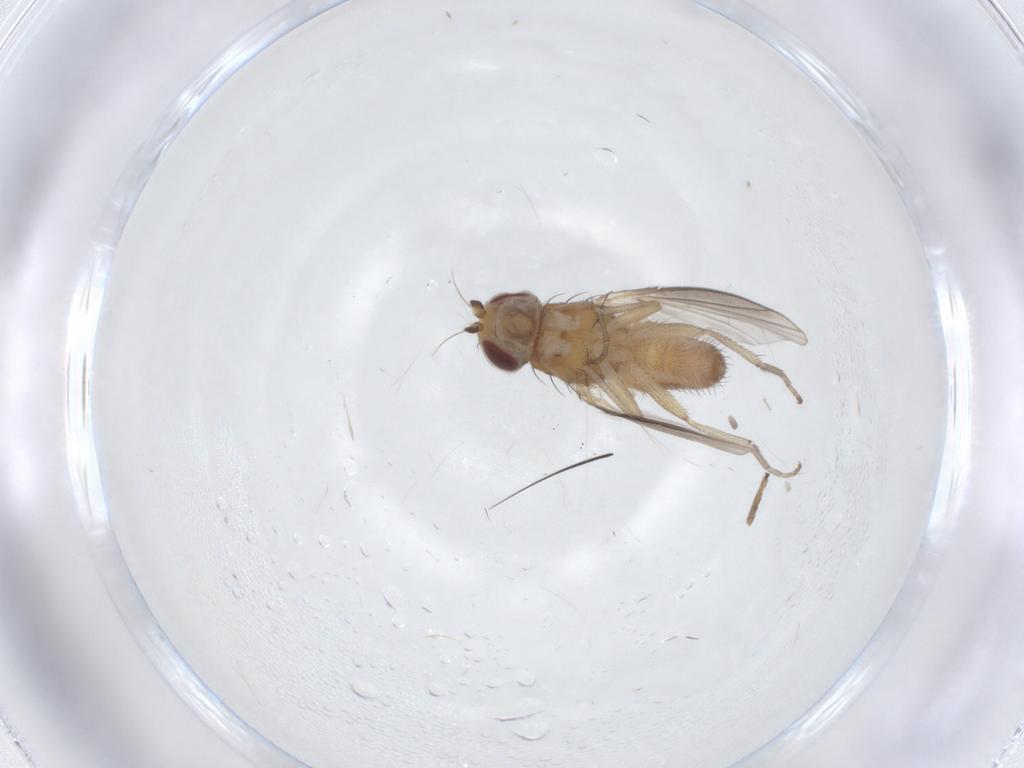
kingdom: Animalia
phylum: Arthropoda
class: Insecta
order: Diptera
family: Heleomyzidae
